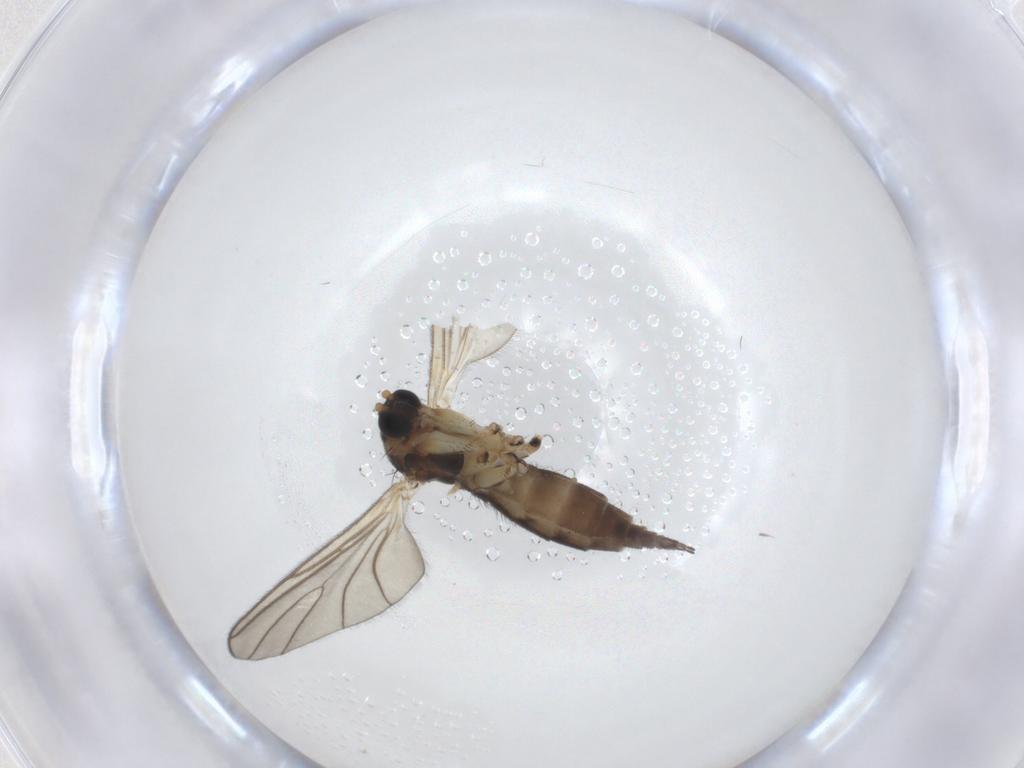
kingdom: Animalia
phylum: Arthropoda
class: Insecta
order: Diptera
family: Sciaridae
